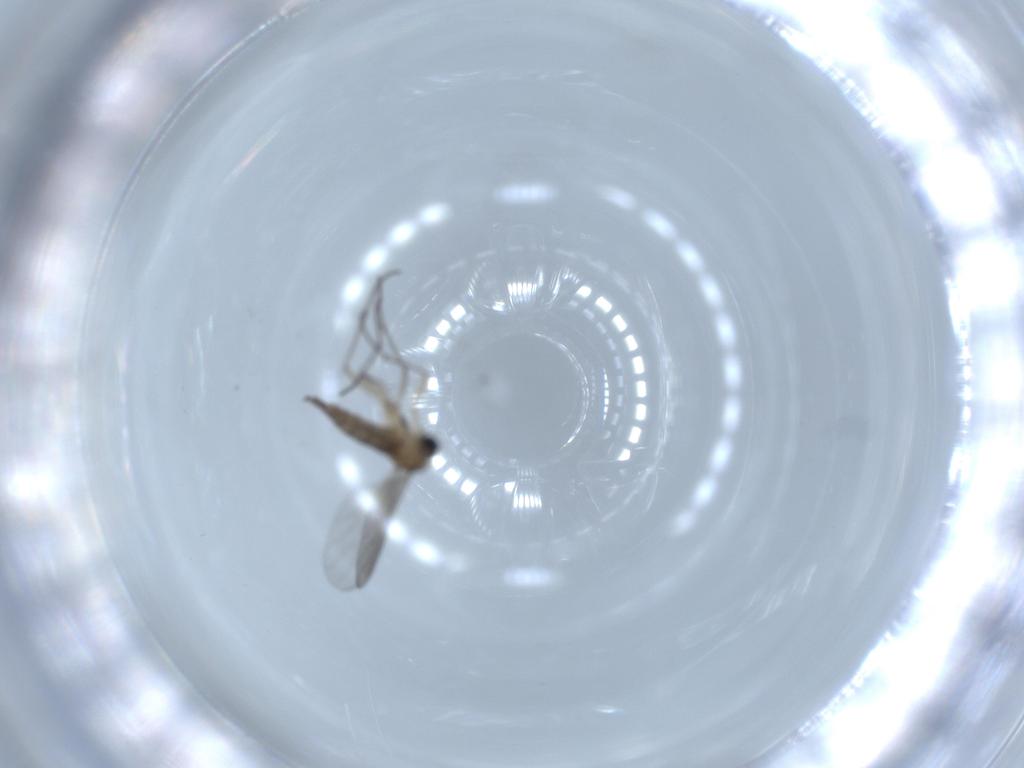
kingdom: Animalia
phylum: Arthropoda
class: Insecta
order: Diptera
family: Sciaridae
